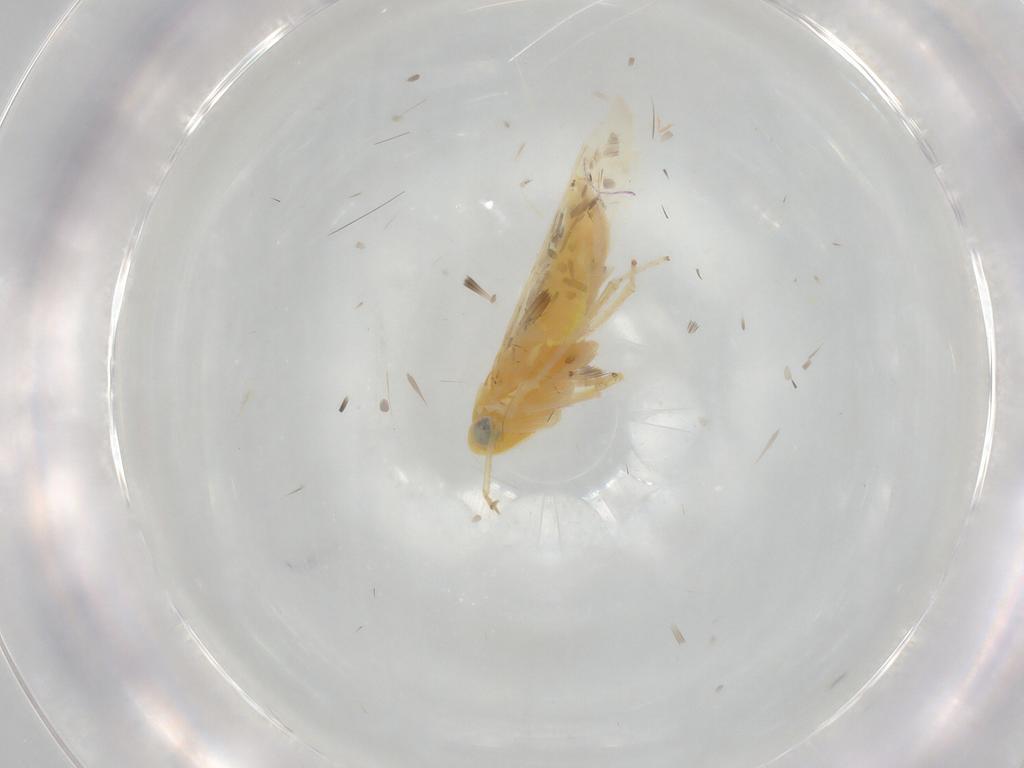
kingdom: Animalia
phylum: Arthropoda
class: Insecta
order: Hemiptera
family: Cicadellidae
